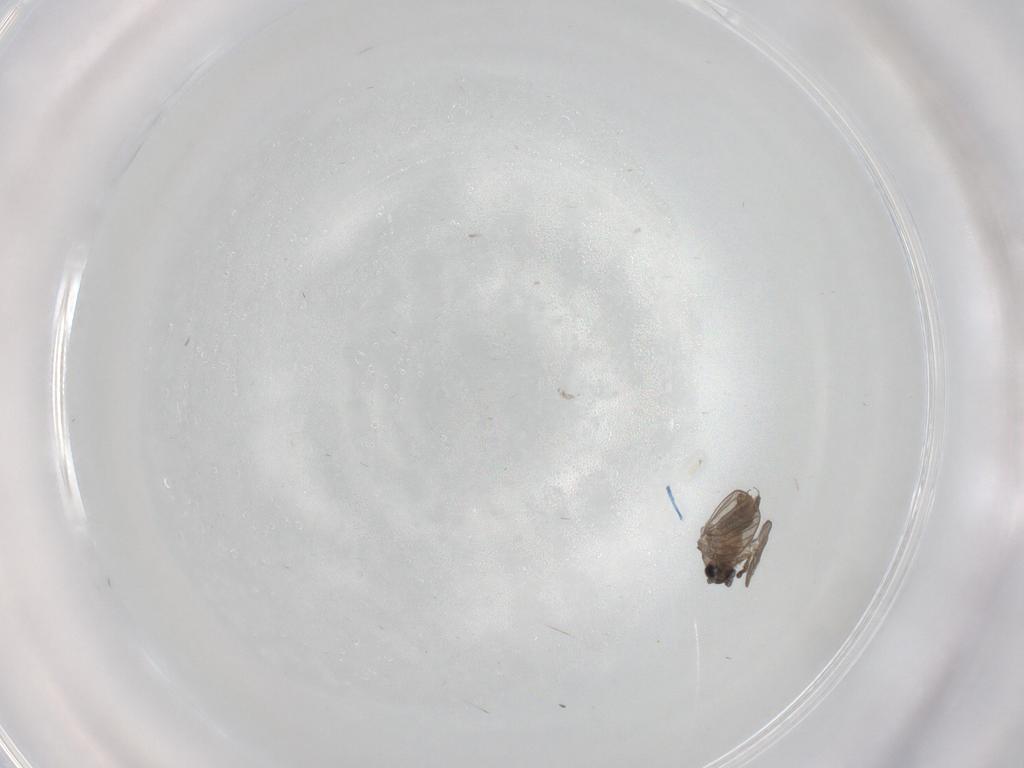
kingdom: Animalia
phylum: Arthropoda
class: Insecta
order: Diptera
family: Psychodidae
